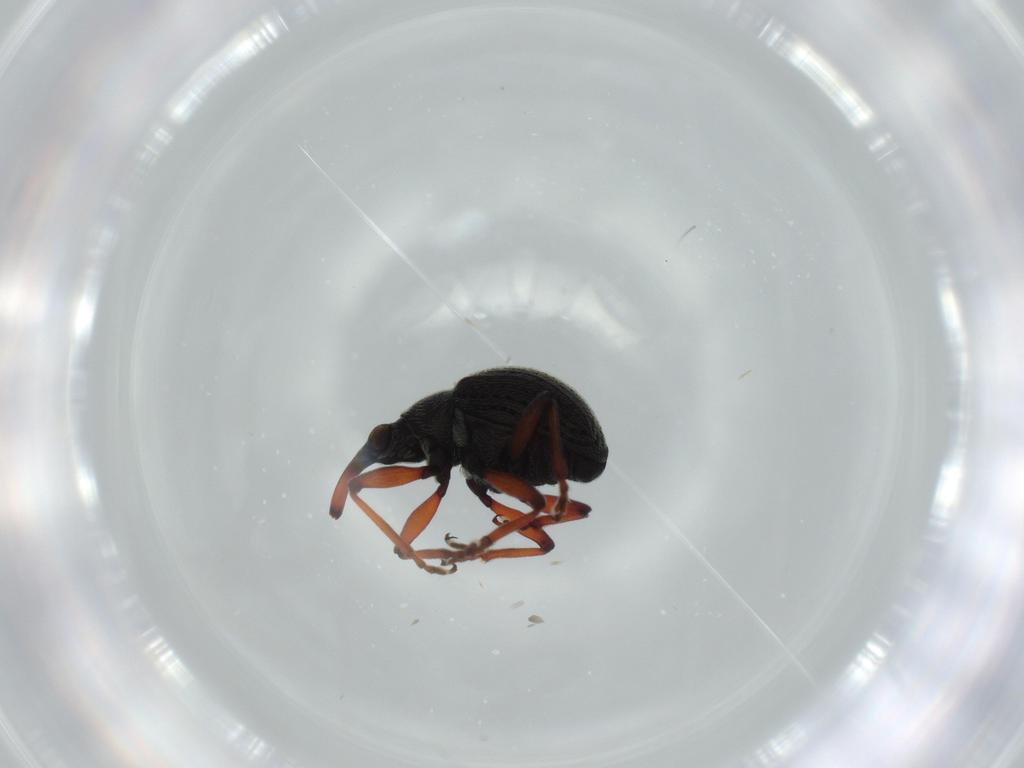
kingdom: Animalia
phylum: Arthropoda
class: Insecta
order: Coleoptera
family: Brentidae
